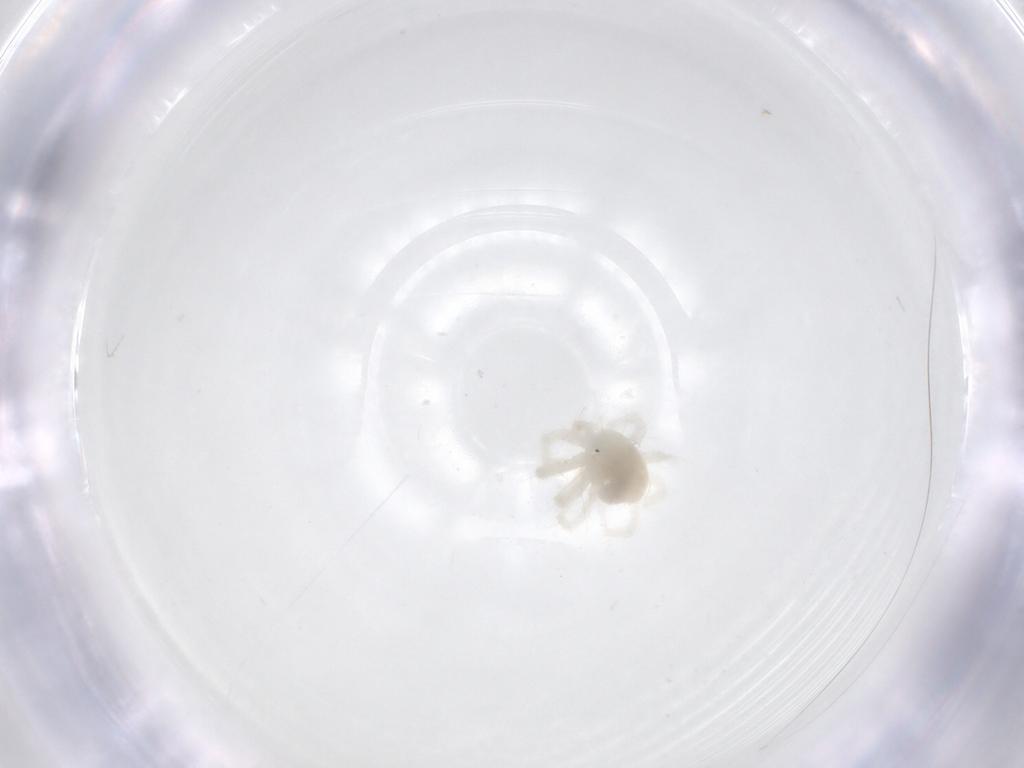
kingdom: Animalia
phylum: Arthropoda
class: Arachnida
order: Trombidiformes
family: Anystidae
